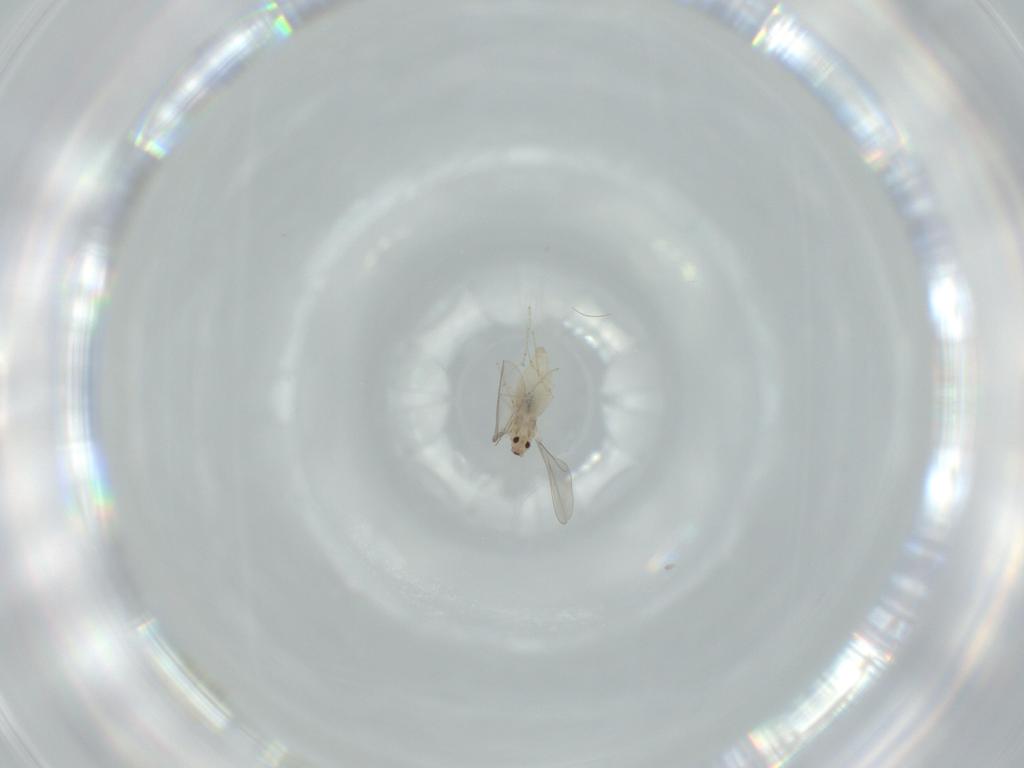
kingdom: Animalia
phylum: Arthropoda
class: Insecta
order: Diptera
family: Cecidomyiidae
